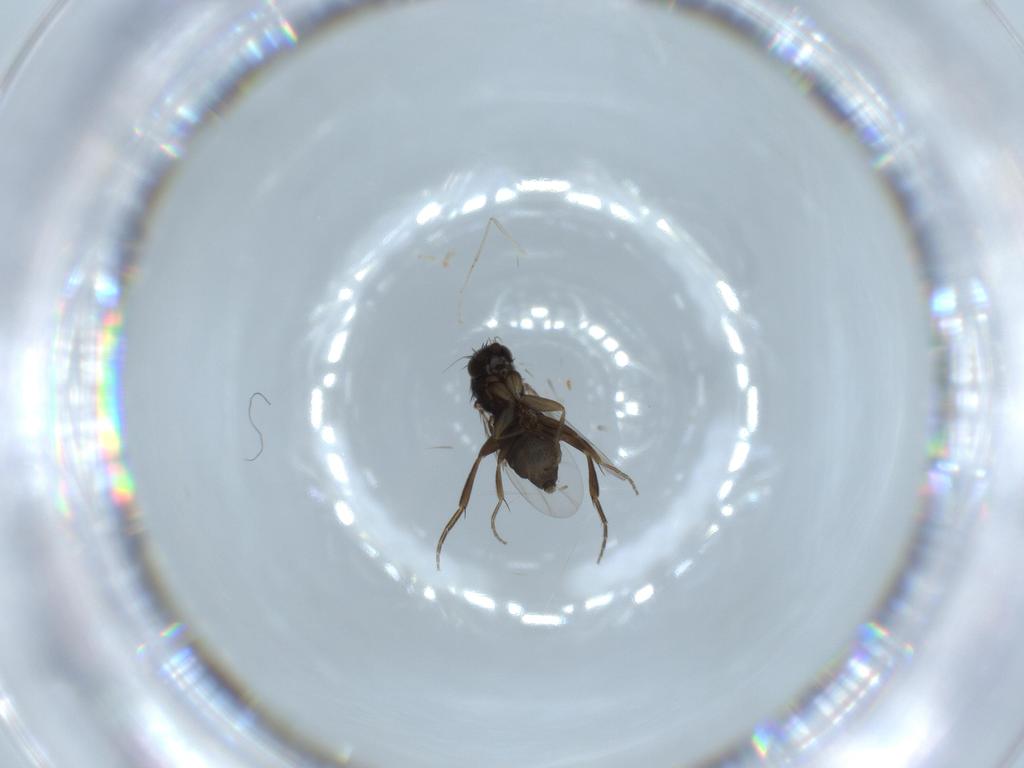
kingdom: Animalia
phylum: Arthropoda
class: Insecta
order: Diptera
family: Phoridae
